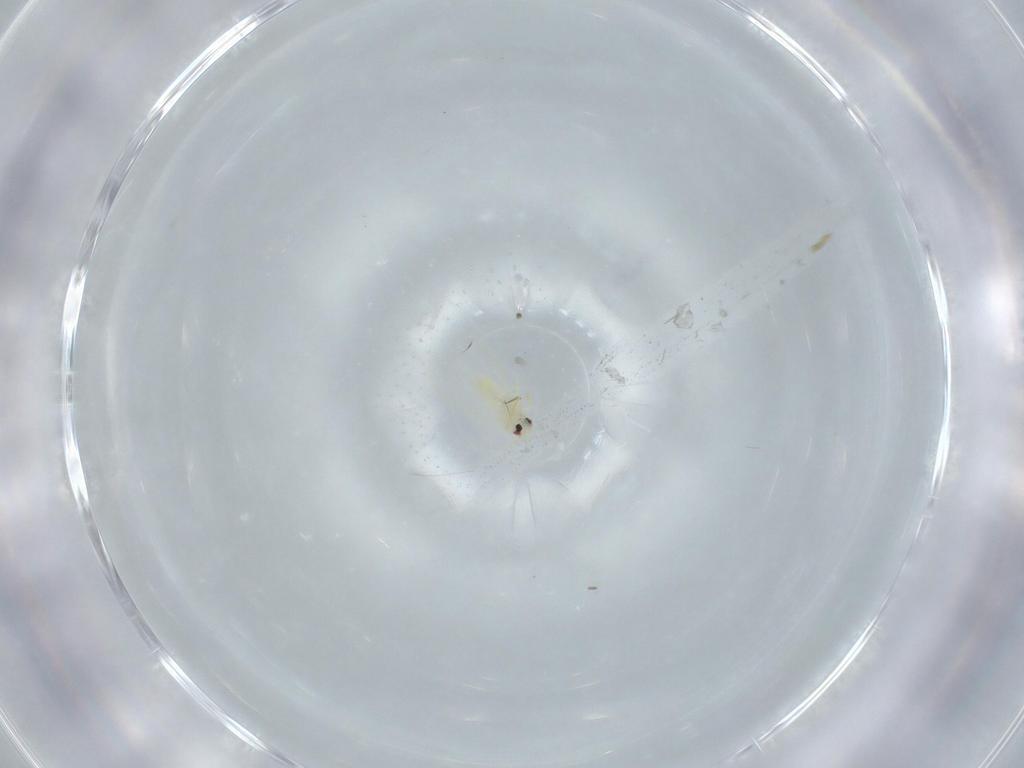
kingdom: Animalia
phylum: Arthropoda
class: Insecta
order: Hemiptera
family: Aleyrodidae
